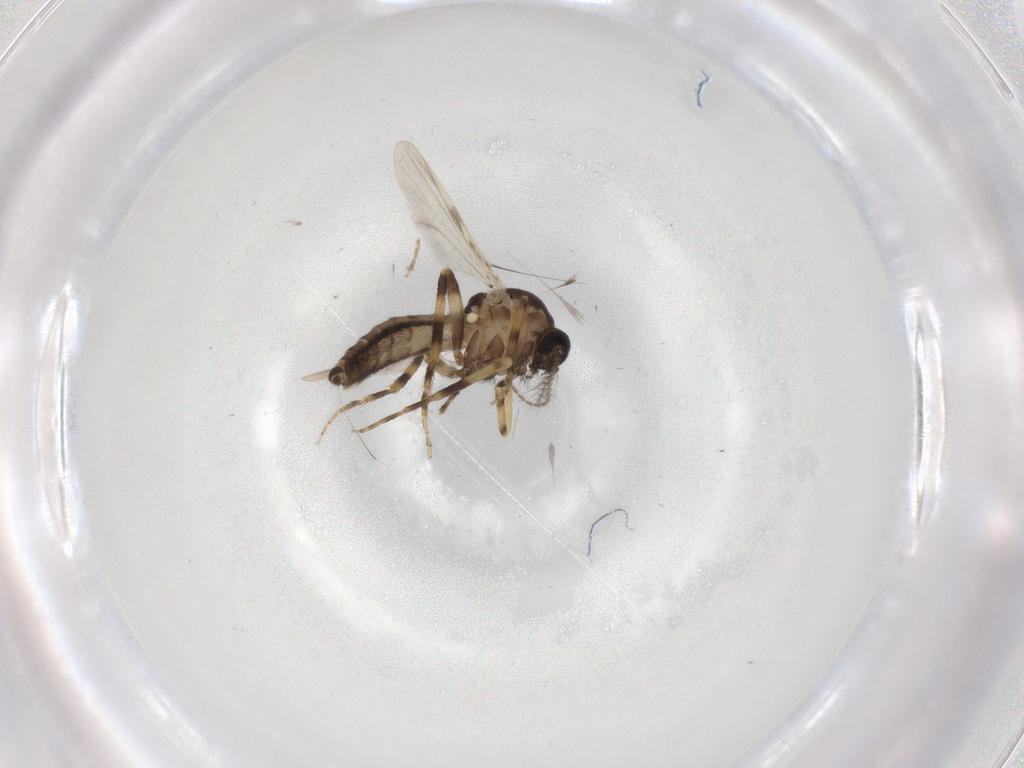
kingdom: Animalia
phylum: Arthropoda
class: Insecta
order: Diptera
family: Ceratopogonidae
